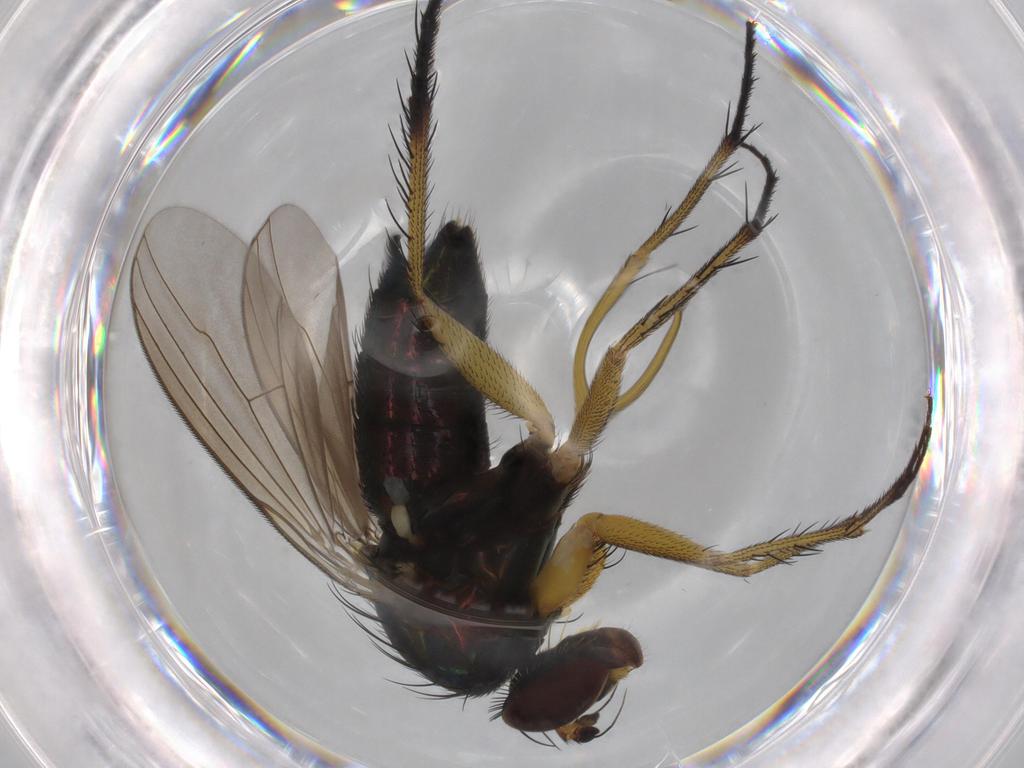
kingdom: Animalia
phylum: Arthropoda
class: Insecta
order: Diptera
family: Dolichopodidae
